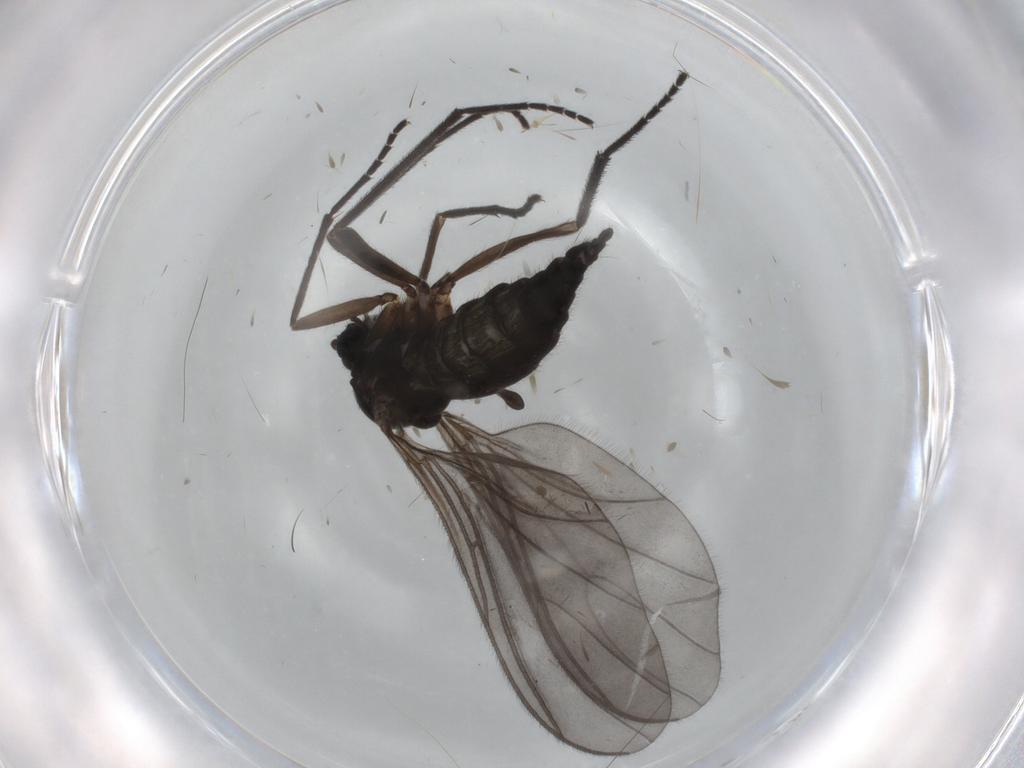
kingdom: Animalia
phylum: Arthropoda
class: Insecta
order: Diptera
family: Sciaridae
